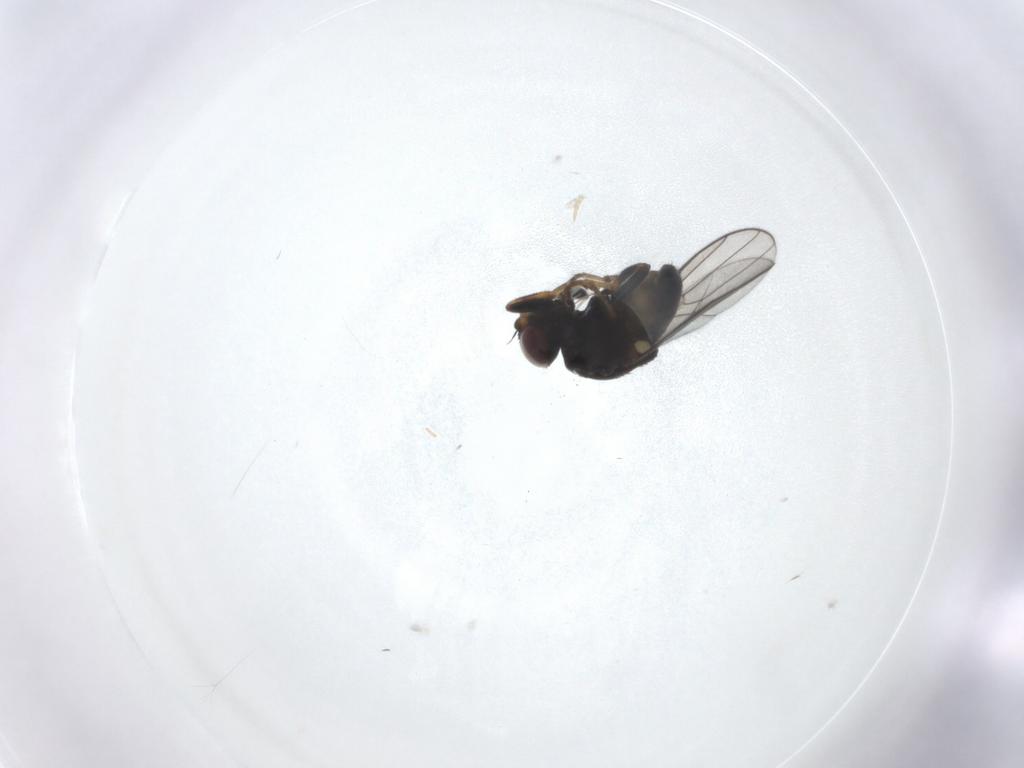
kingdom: Animalia
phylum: Arthropoda
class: Insecta
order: Diptera
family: Chloropidae
